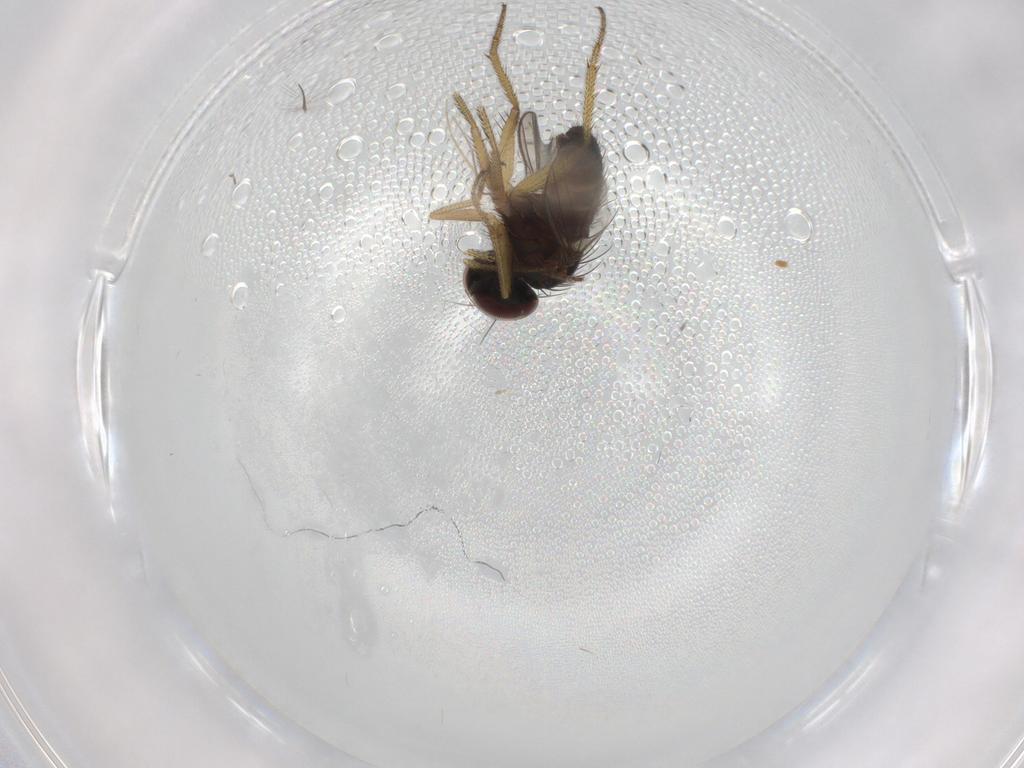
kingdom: Animalia
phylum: Arthropoda
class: Insecta
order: Diptera
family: Chironomidae
